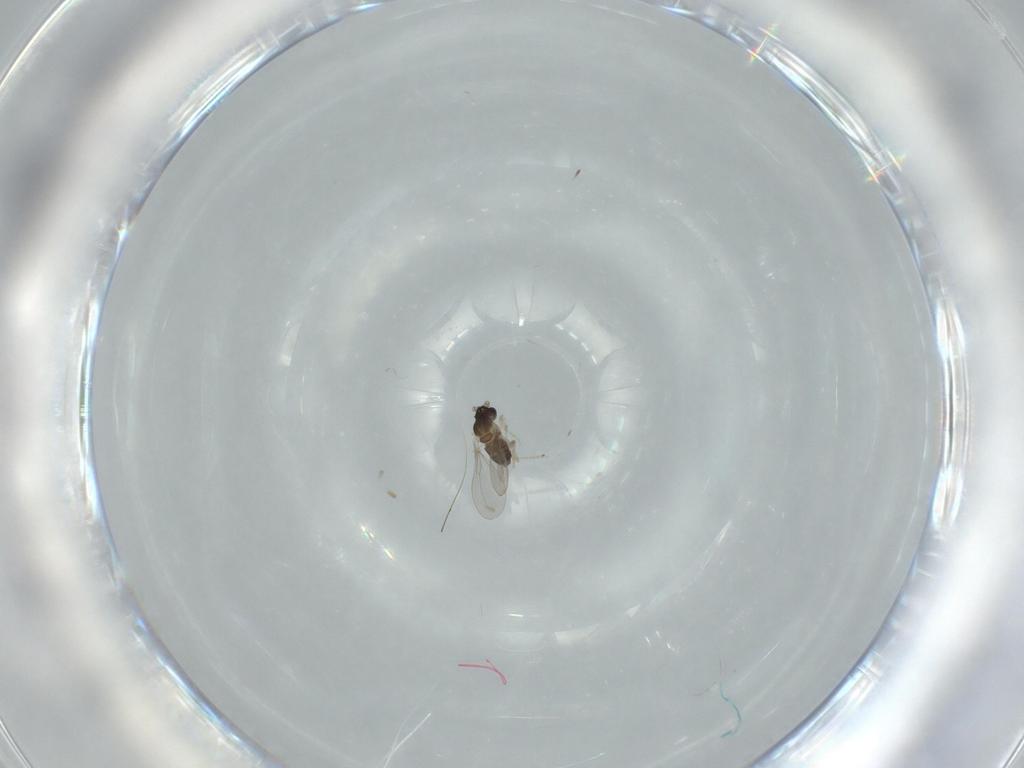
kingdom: Animalia
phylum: Arthropoda
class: Insecta
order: Diptera
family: Cecidomyiidae
